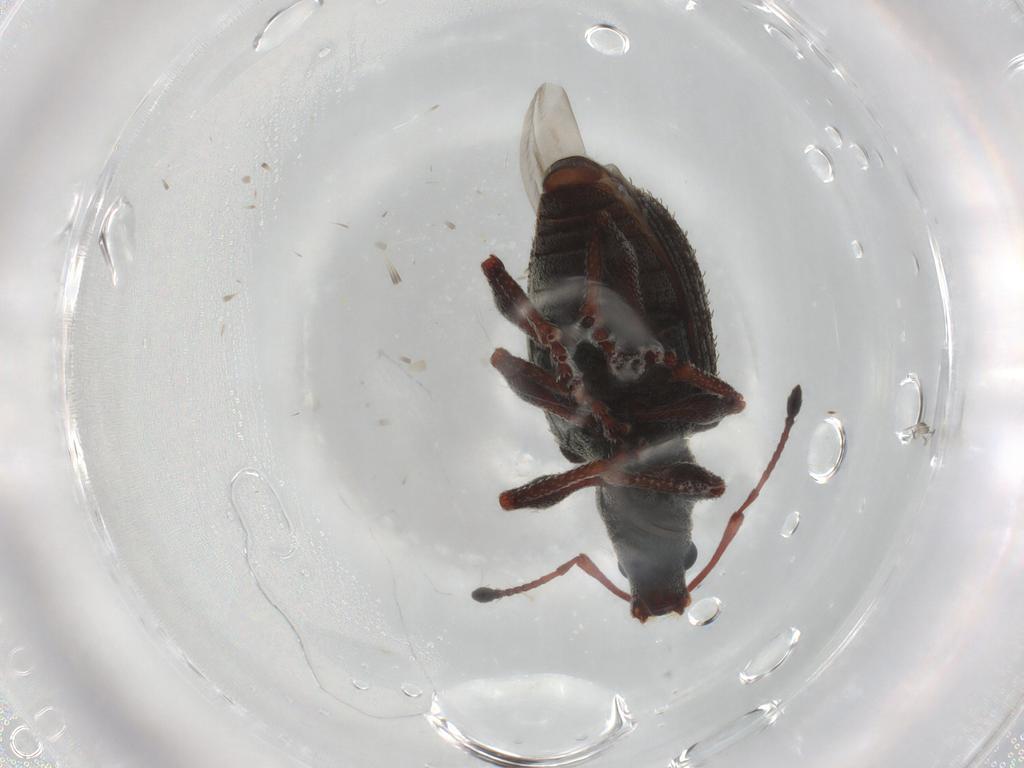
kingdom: Animalia
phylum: Arthropoda
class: Insecta
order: Coleoptera
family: Curculionidae
